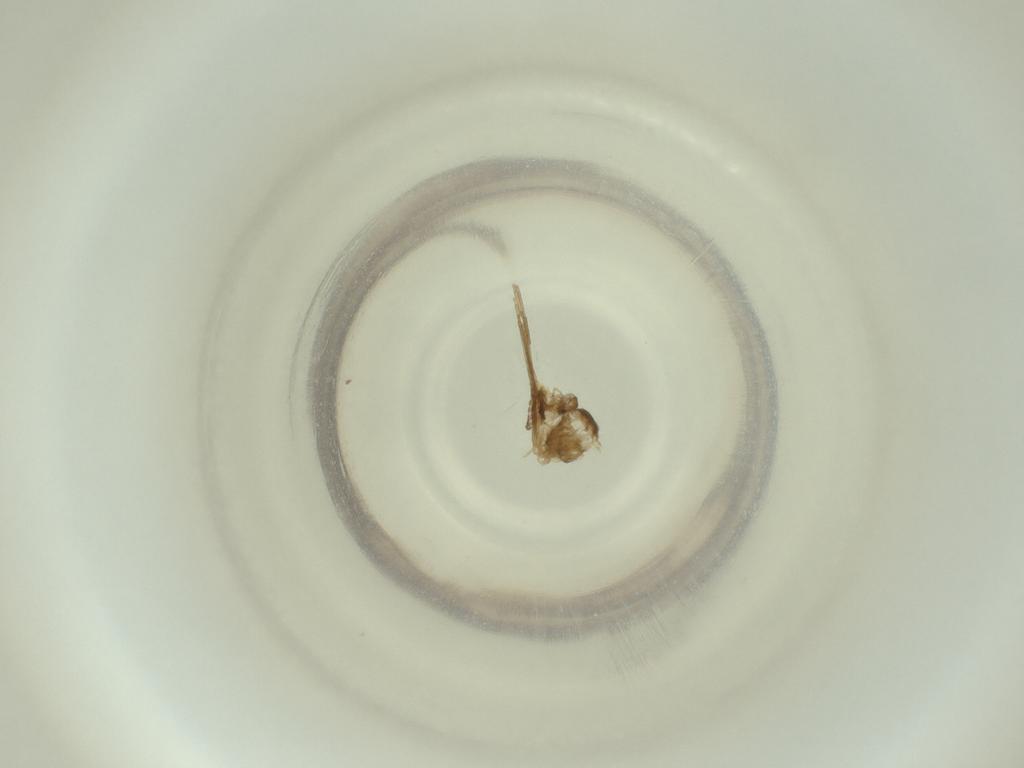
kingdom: Animalia
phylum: Arthropoda
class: Insecta
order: Diptera
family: Cecidomyiidae
